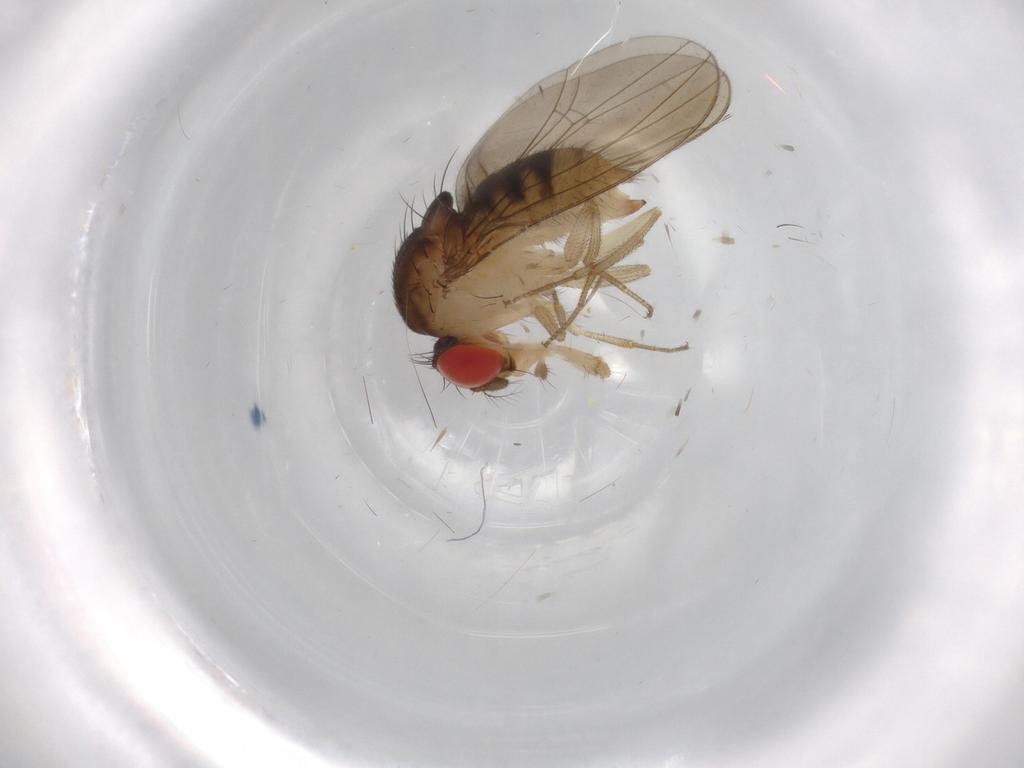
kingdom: Animalia
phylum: Arthropoda
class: Insecta
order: Diptera
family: Drosophilidae
